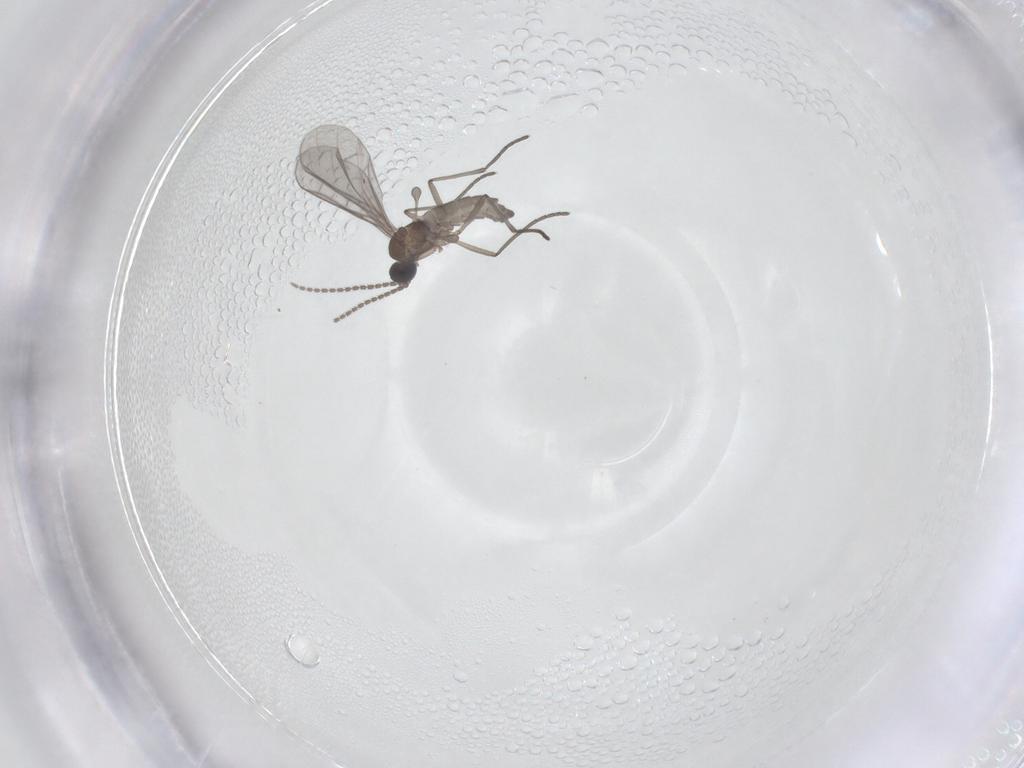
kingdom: Animalia
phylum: Arthropoda
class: Insecta
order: Diptera
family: Sciaridae
